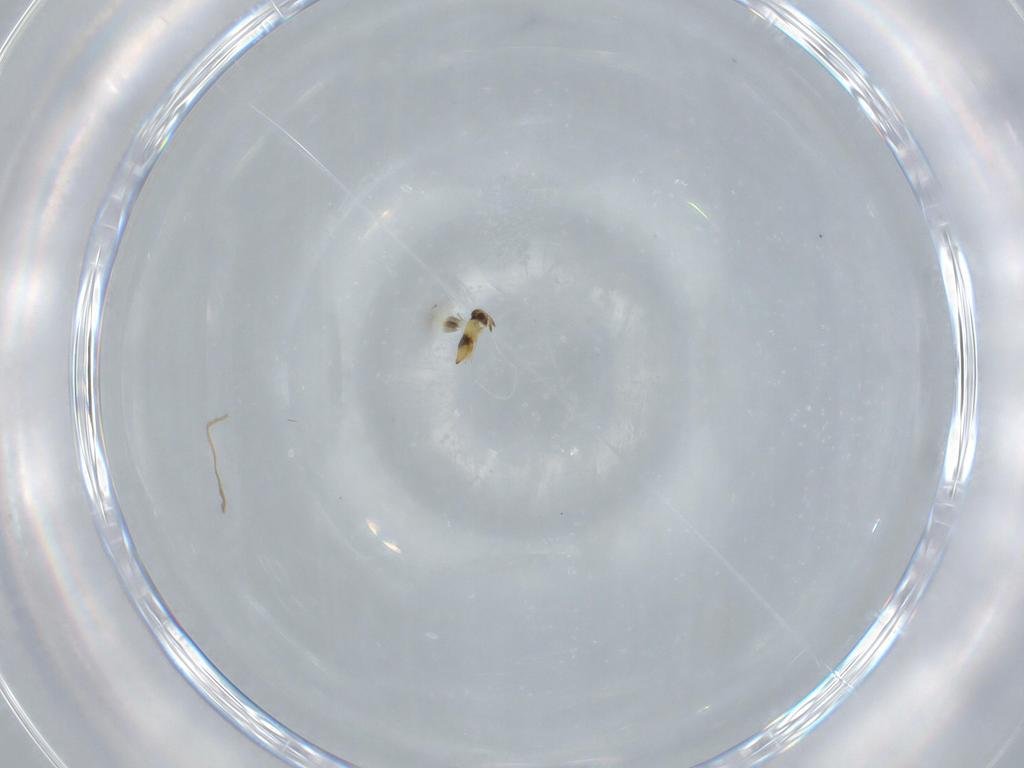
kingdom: Animalia
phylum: Arthropoda
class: Insecta
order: Hymenoptera
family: Signiphoridae
